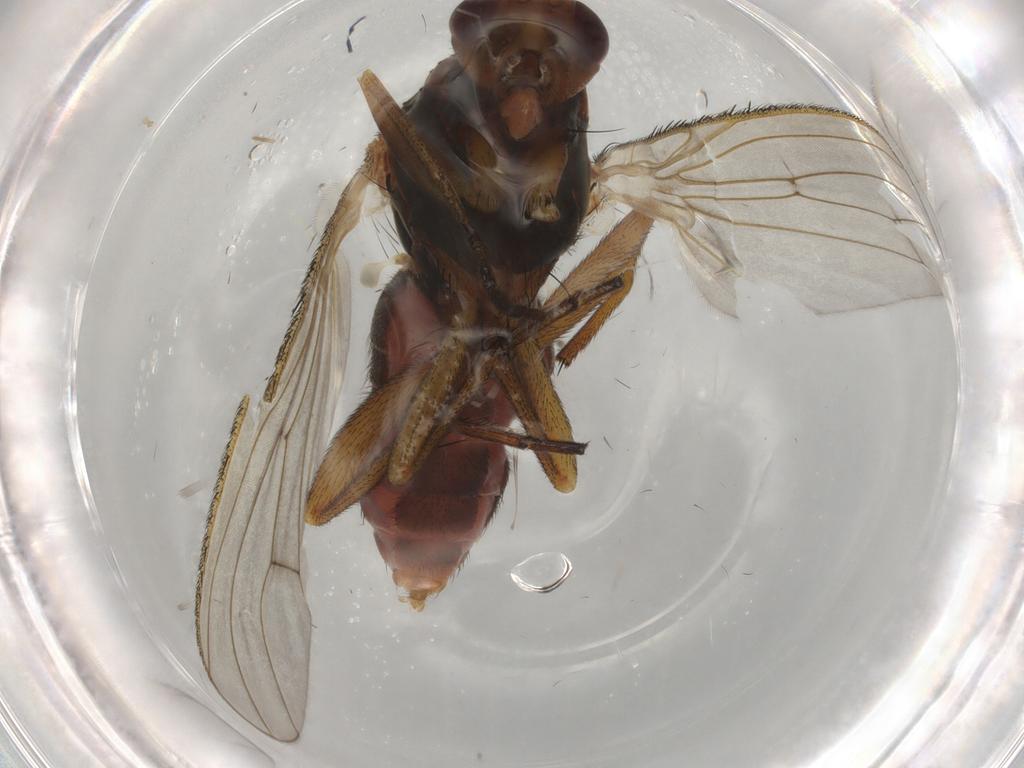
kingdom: Animalia
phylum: Arthropoda
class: Insecta
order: Diptera
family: Heleomyzidae
